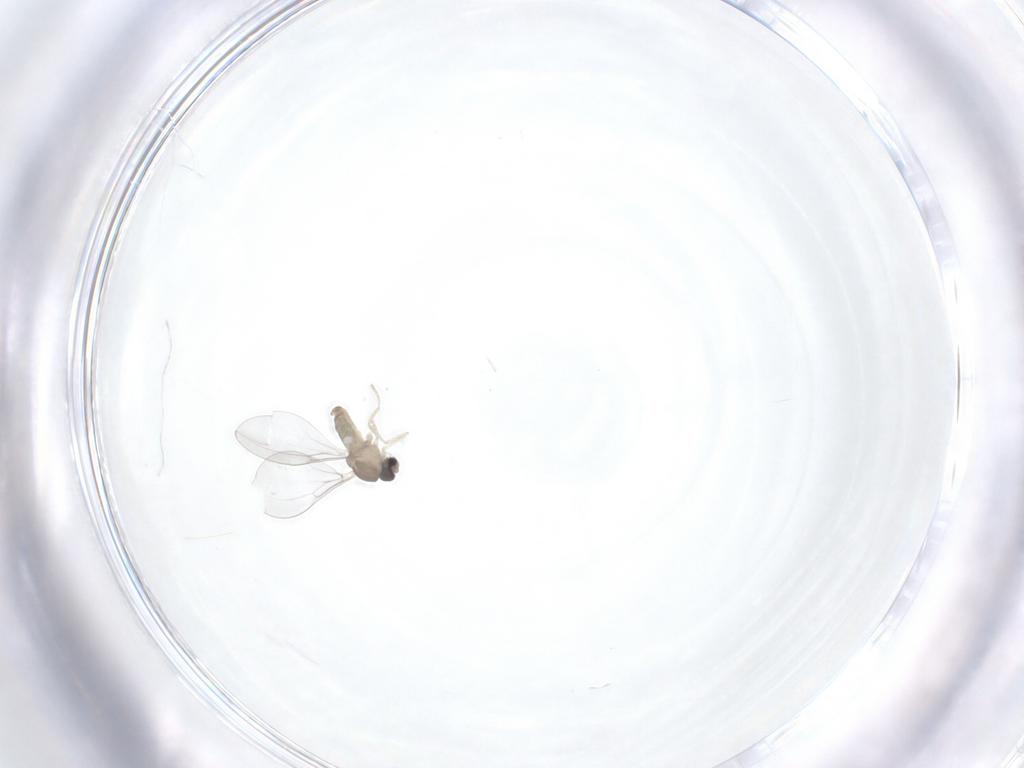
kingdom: Animalia
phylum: Arthropoda
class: Insecta
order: Diptera
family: Cecidomyiidae
